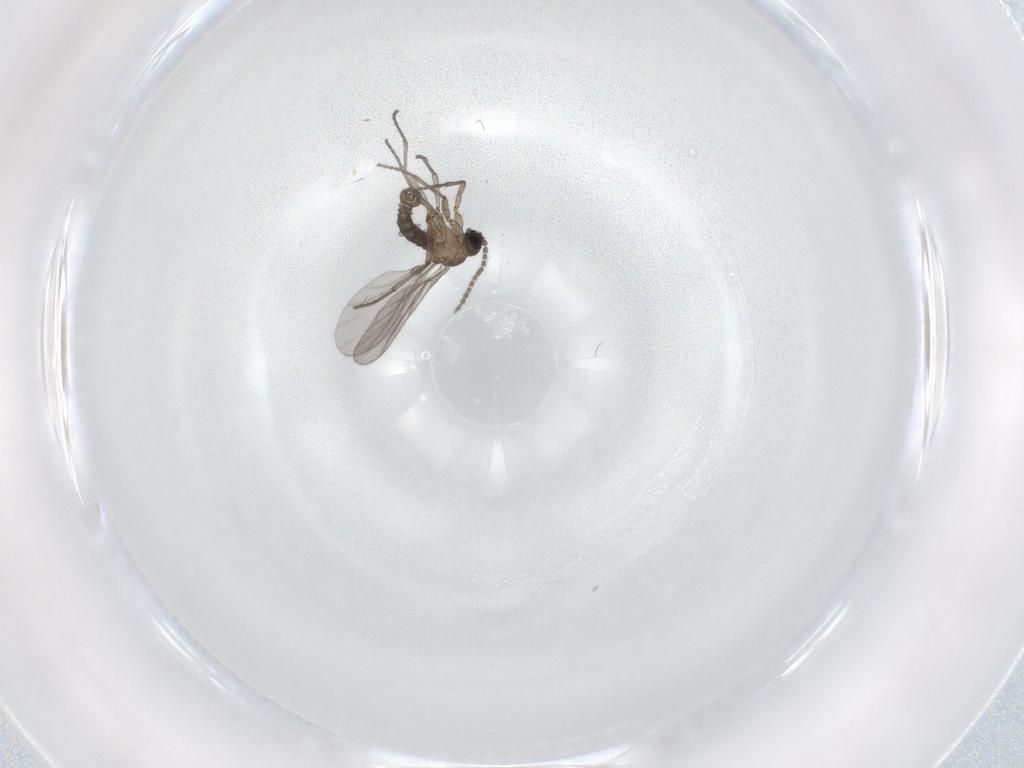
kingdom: Animalia
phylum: Arthropoda
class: Insecta
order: Diptera
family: Sciaridae
